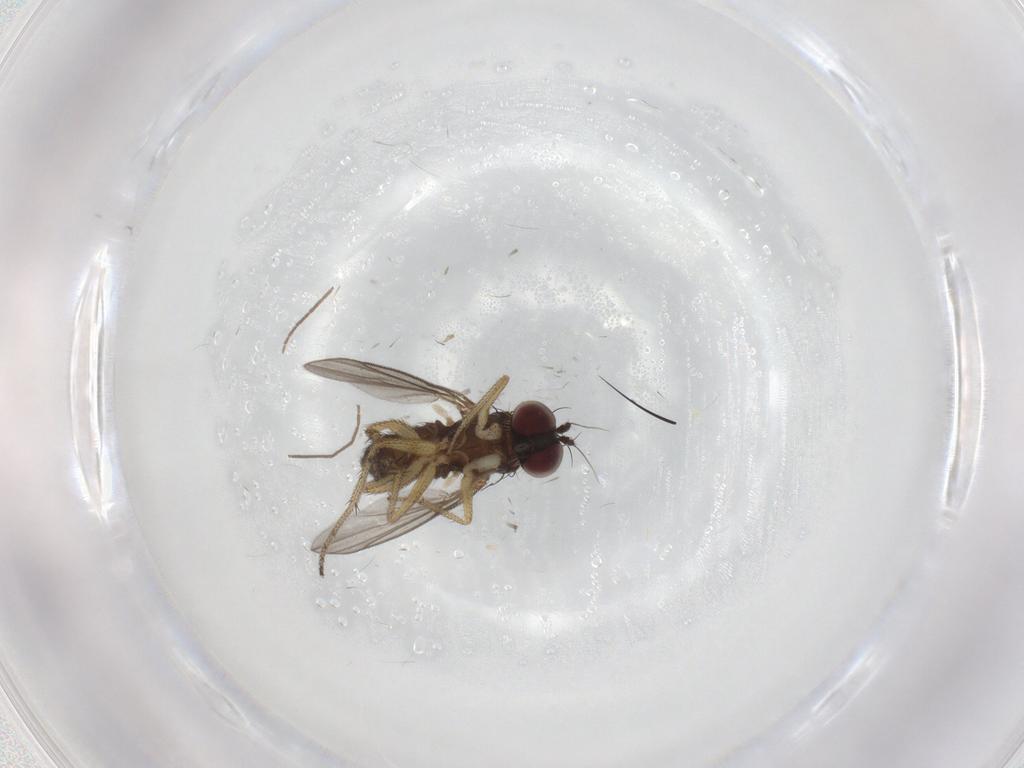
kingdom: Animalia
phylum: Arthropoda
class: Insecta
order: Diptera
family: Dolichopodidae
